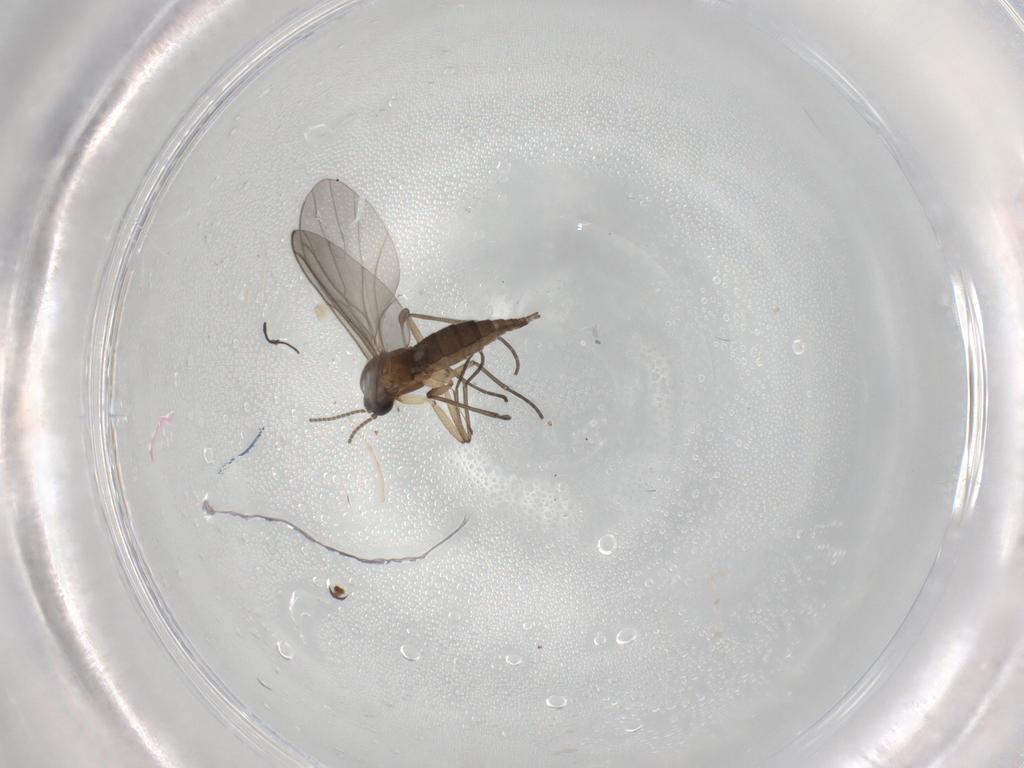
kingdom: Animalia
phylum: Arthropoda
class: Insecta
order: Diptera
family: Sciaridae
